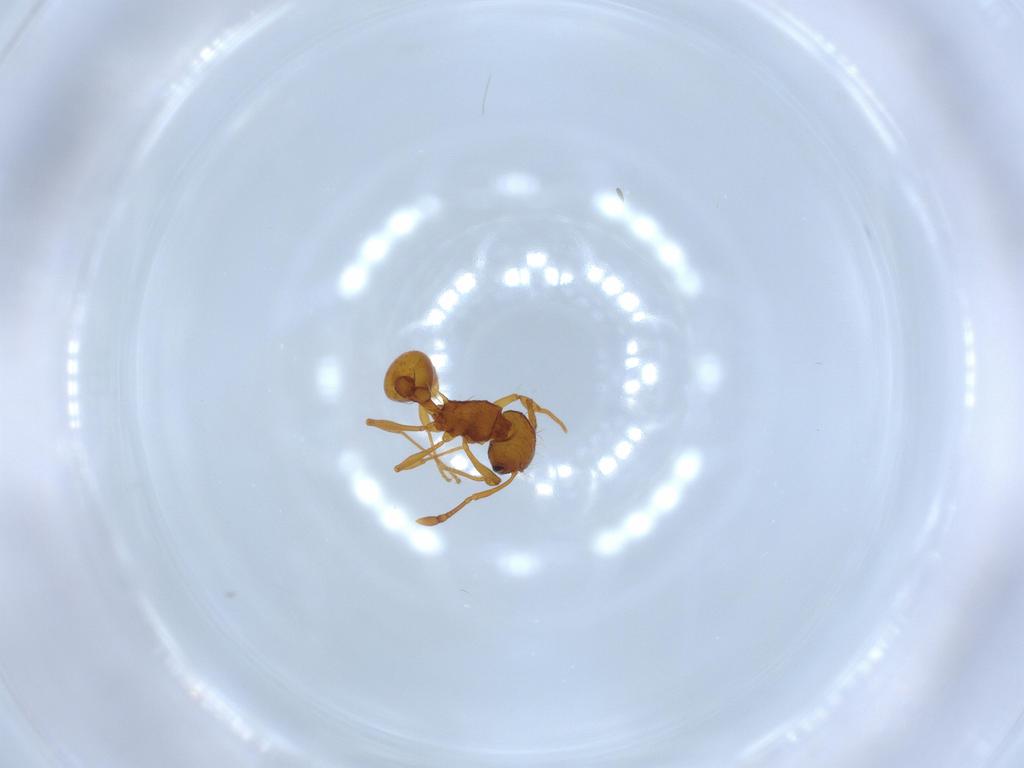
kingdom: Animalia
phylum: Arthropoda
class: Insecta
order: Hymenoptera
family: Formicidae
